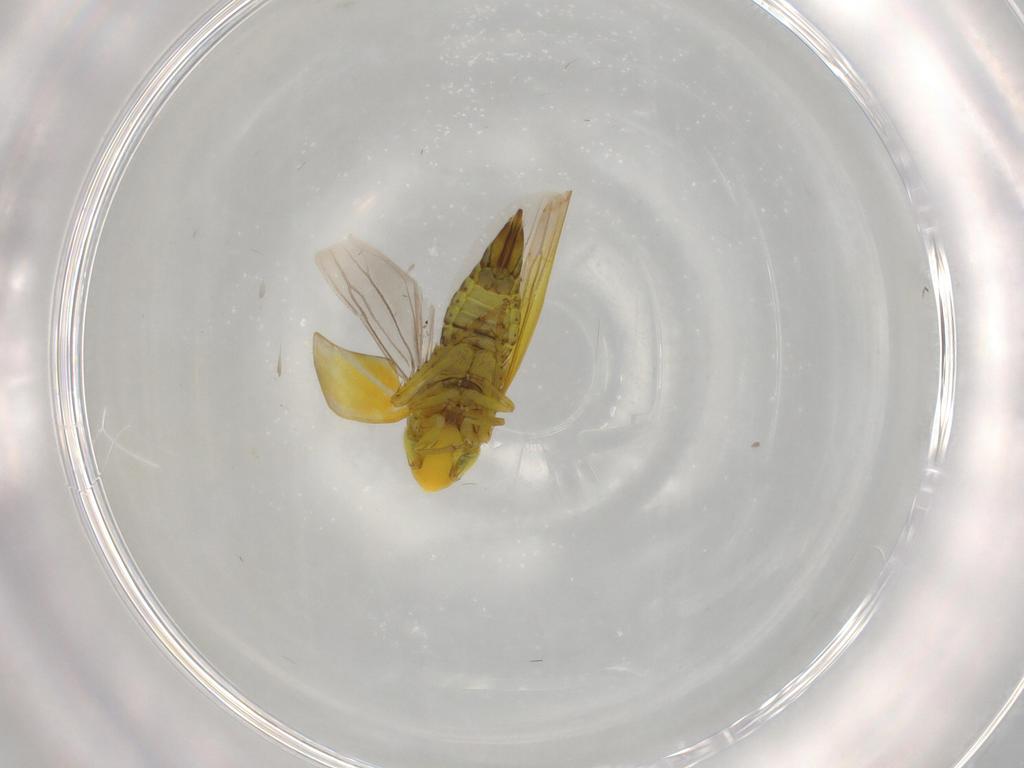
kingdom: Animalia
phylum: Arthropoda
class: Insecta
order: Hemiptera
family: Cicadellidae
